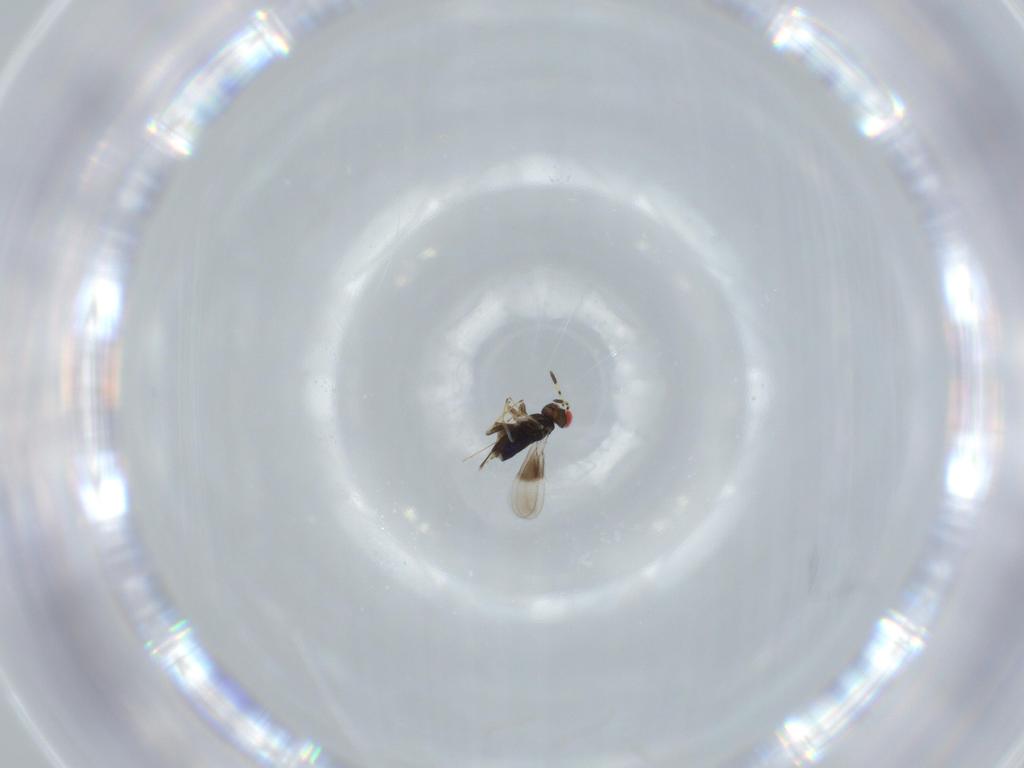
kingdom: Animalia
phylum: Arthropoda
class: Insecta
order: Hymenoptera
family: Azotidae
